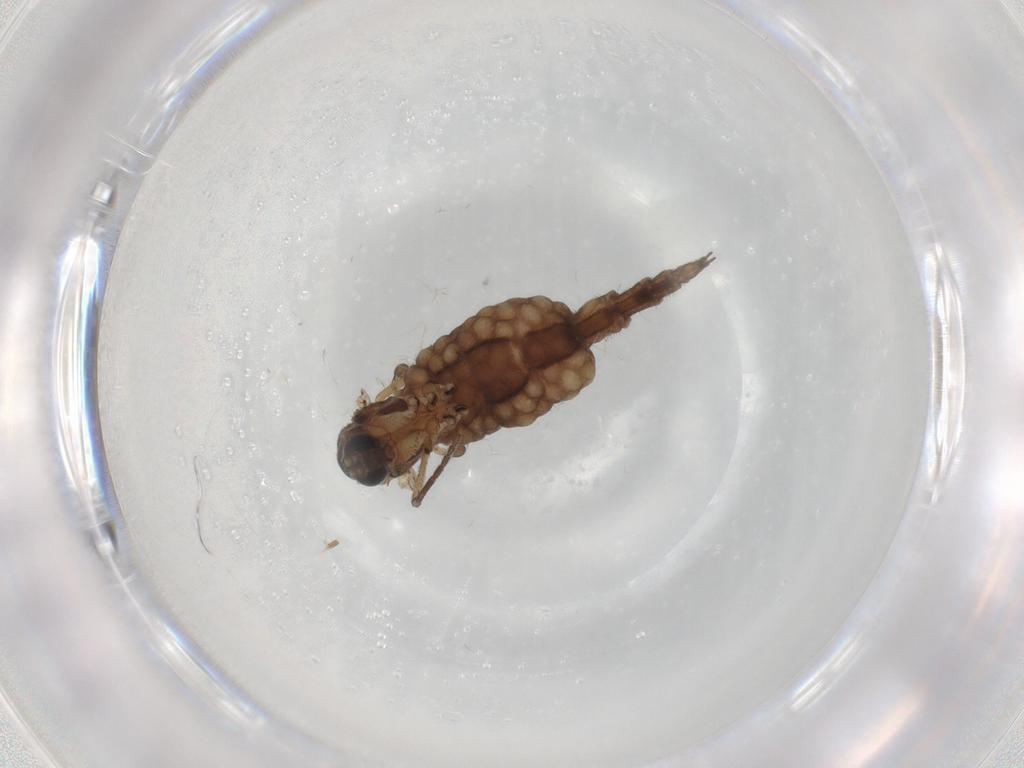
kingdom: Animalia
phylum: Arthropoda
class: Insecta
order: Diptera
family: Sciaridae
